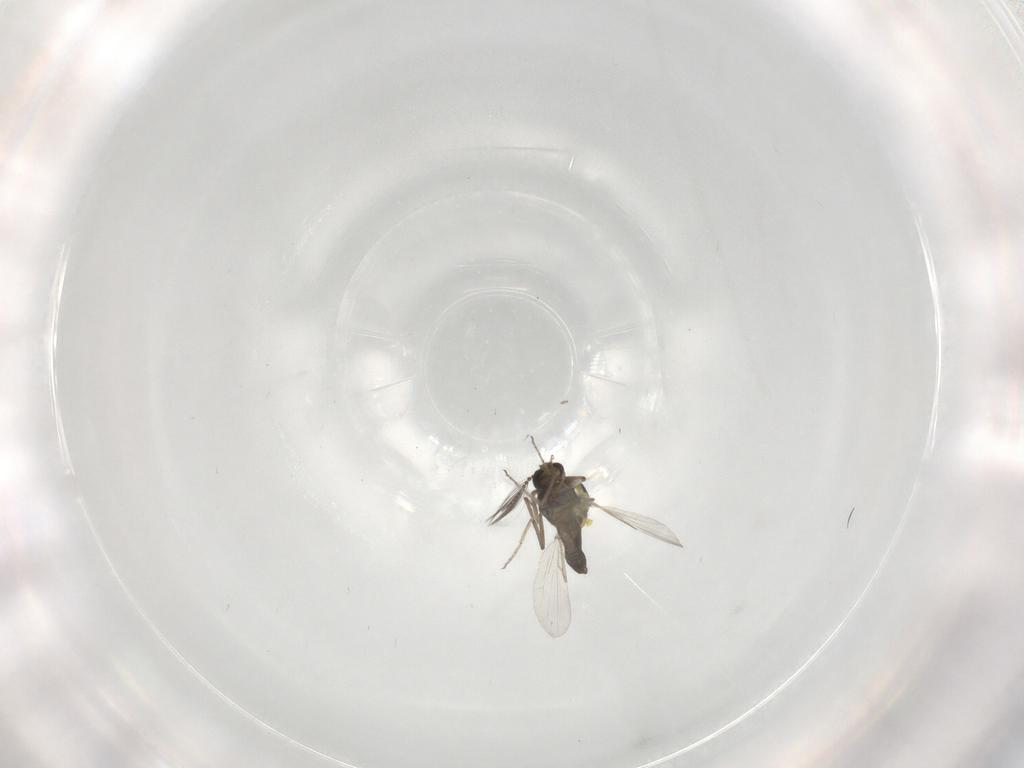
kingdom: Animalia
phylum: Arthropoda
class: Insecta
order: Diptera
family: Ceratopogonidae
